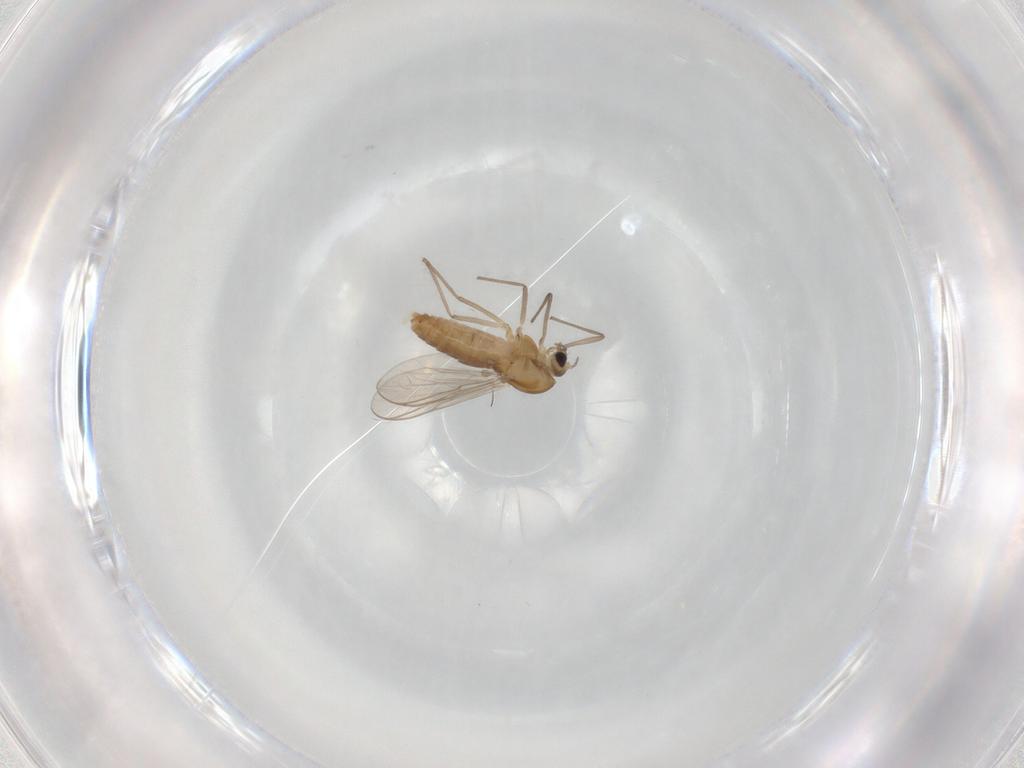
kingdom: Animalia
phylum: Arthropoda
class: Insecta
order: Diptera
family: Chironomidae
